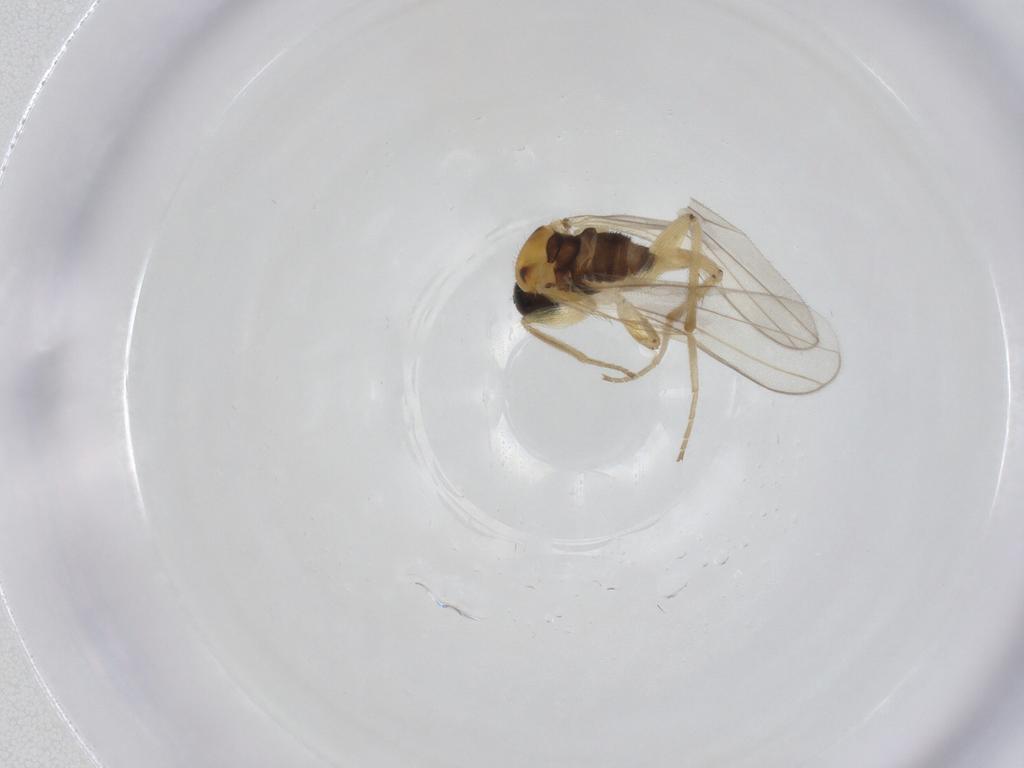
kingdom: Animalia
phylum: Arthropoda
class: Insecta
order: Diptera
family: Hybotidae
